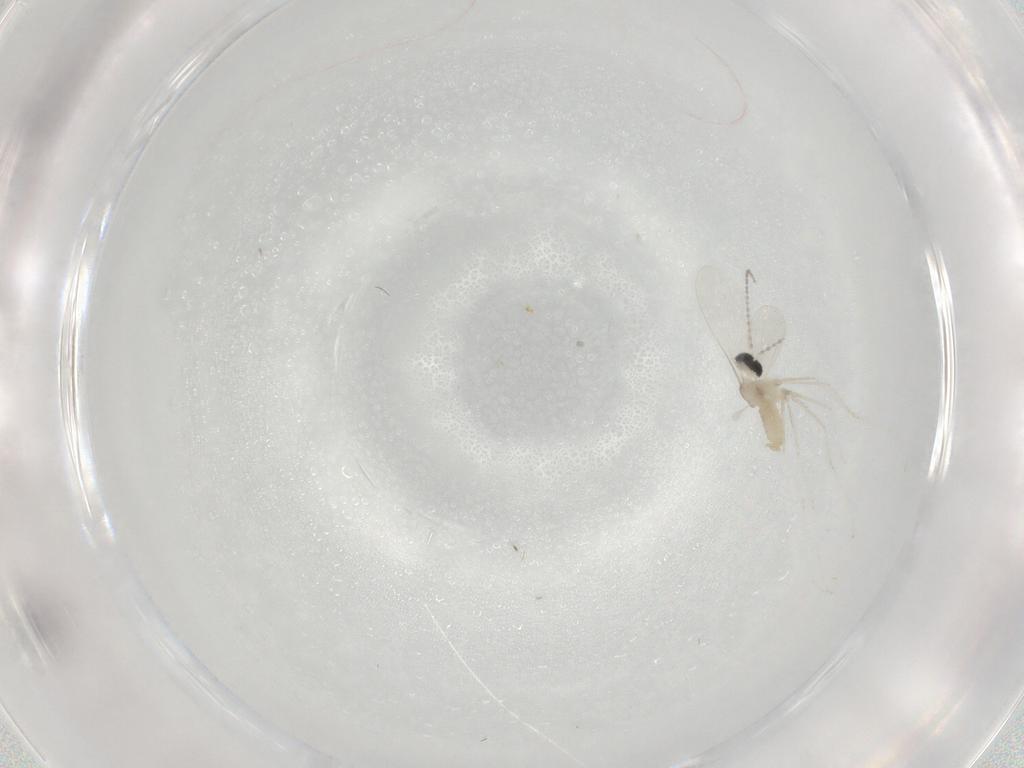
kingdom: Animalia
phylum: Arthropoda
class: Insecta
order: Diptera
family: Cecidomyiidae
